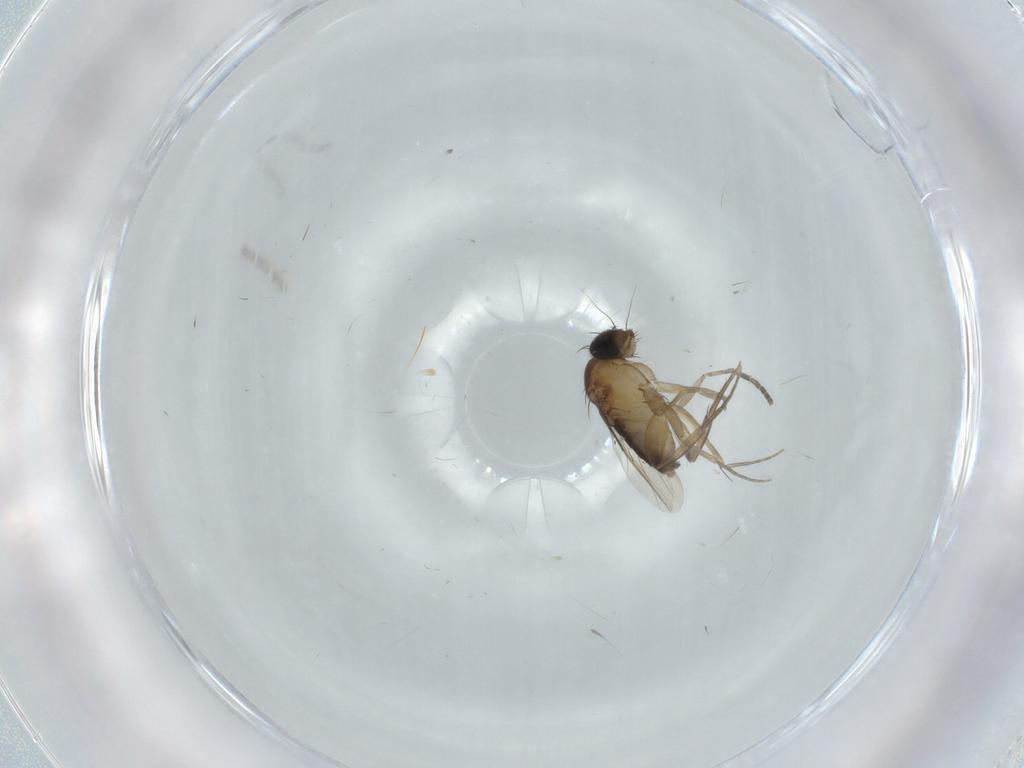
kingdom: Animalia
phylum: Arthropoda
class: Insecta
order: Diptera
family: Phoridae
